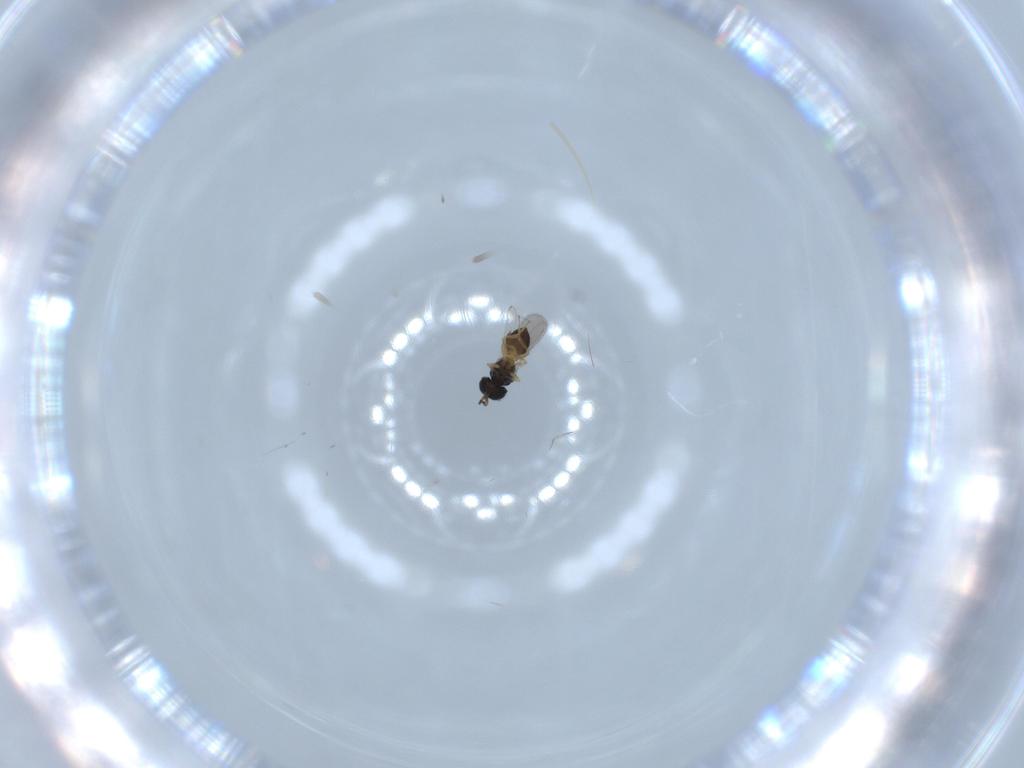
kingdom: Animalia
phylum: Arthropoda
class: Insecta
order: Hymenoptera
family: Scelionidae
